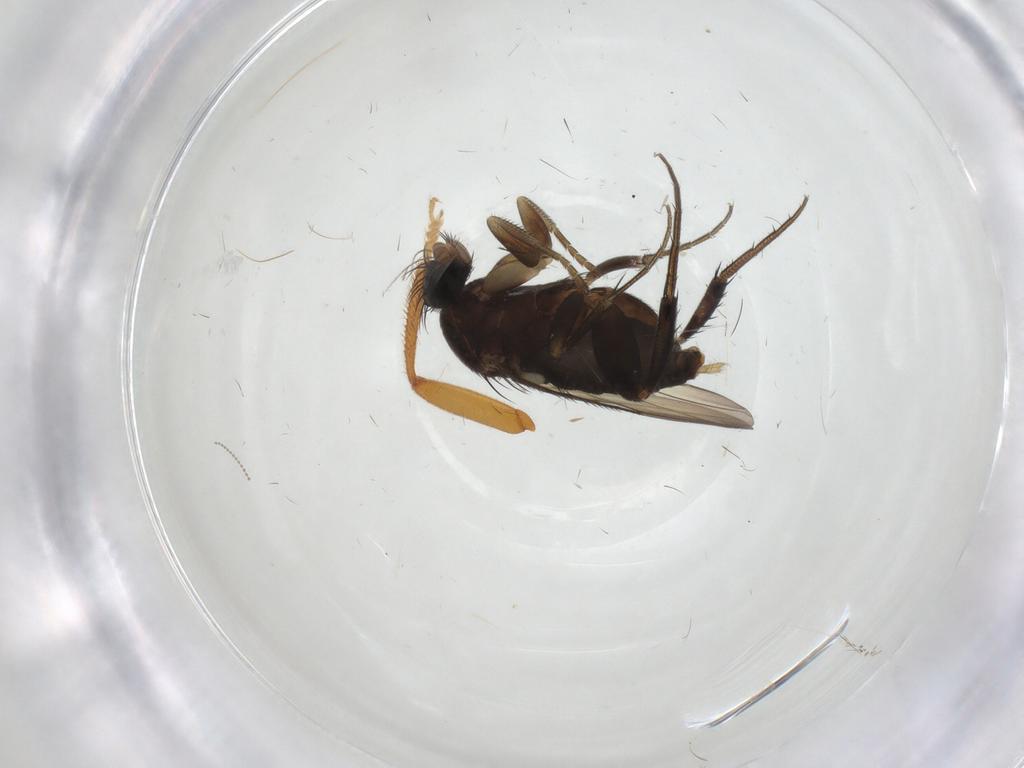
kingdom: Animalia
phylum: Arthropoda
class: Insecta
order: Diptera
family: Phoridae
